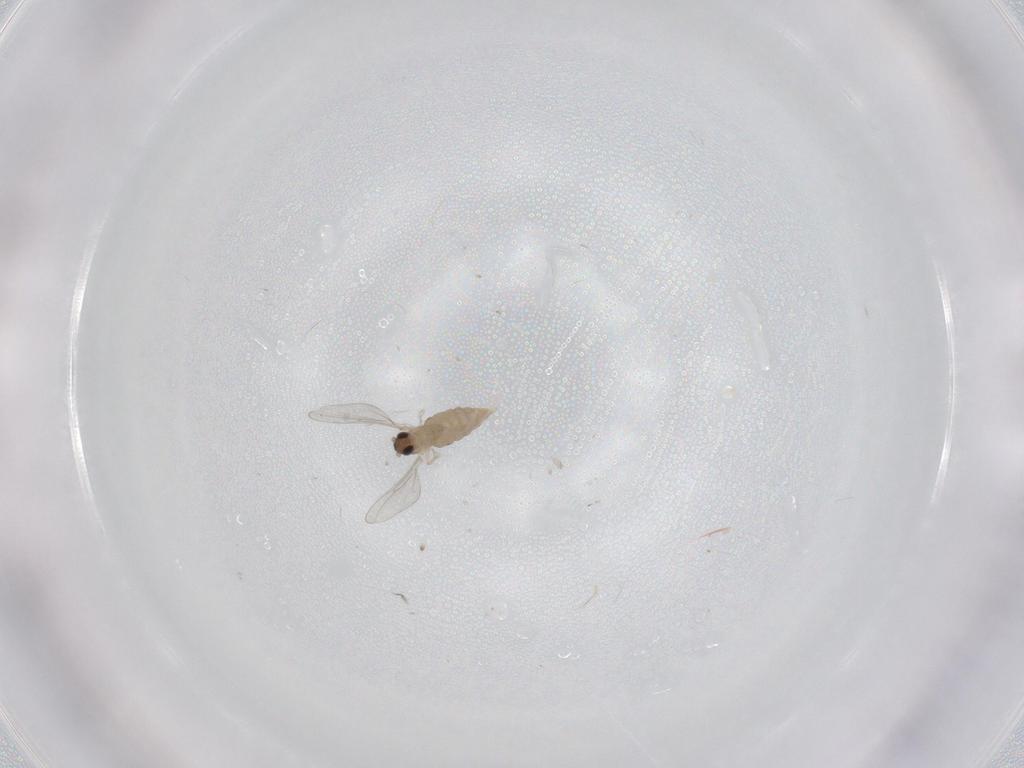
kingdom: Animalia
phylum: Arthropoda
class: Insecta
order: Diptera
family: Cecidomyiidae
